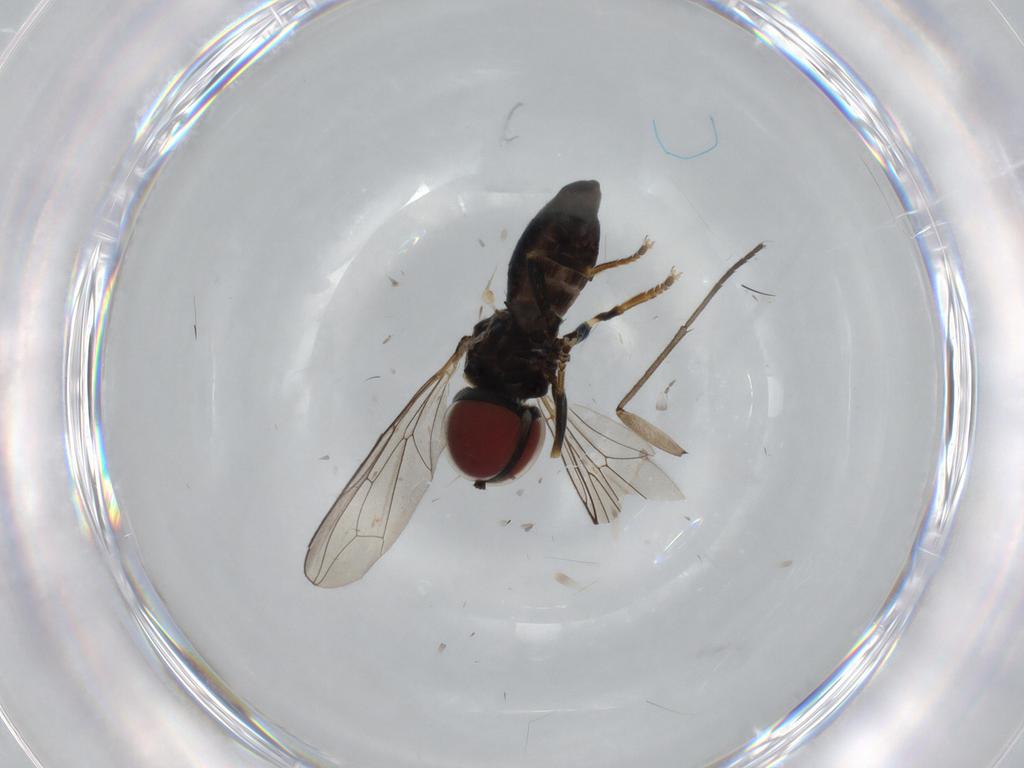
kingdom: Animalia
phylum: Arthropoda
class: Insecta
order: Diptera
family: Pipunculidae
